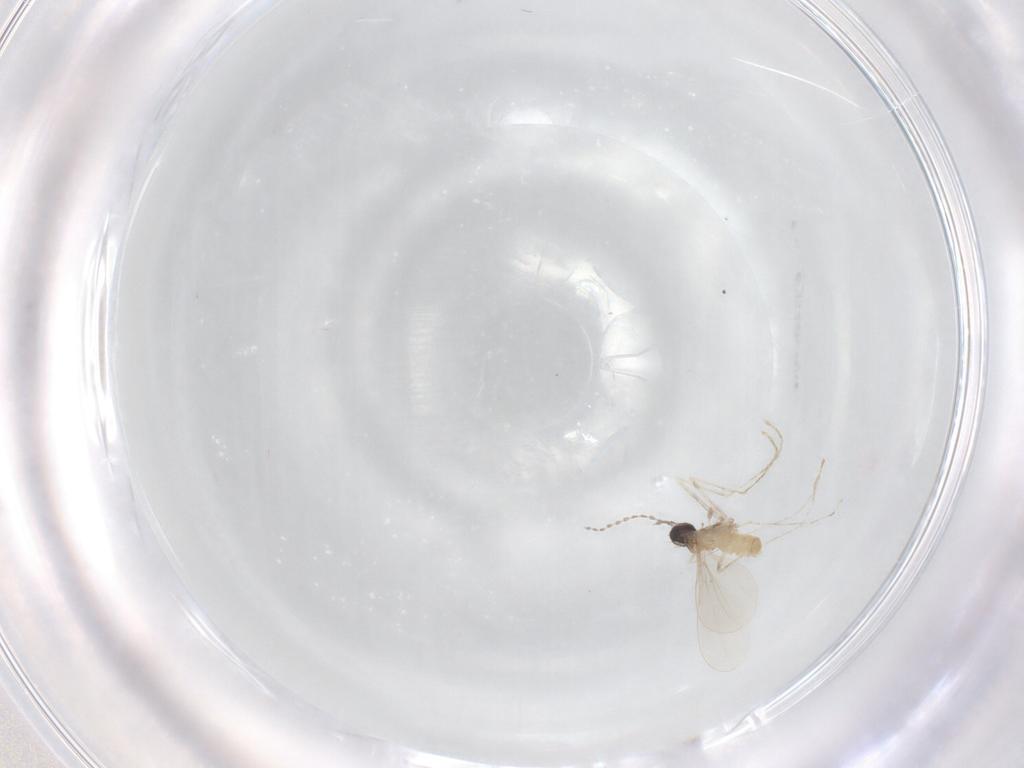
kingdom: Animalia
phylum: Arthropoda
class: Insecta
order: Diptera
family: Cecidomyiidae
